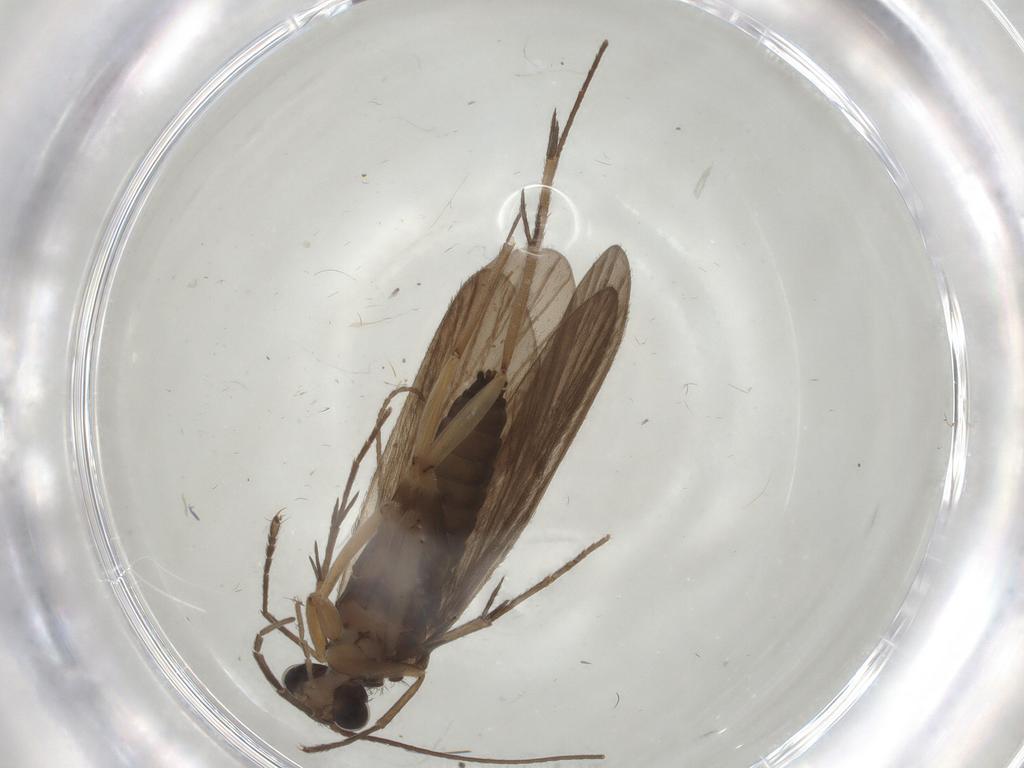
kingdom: Animalia
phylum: Arthropoda
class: Insecta
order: Trichoptera
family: Philopotamidae
